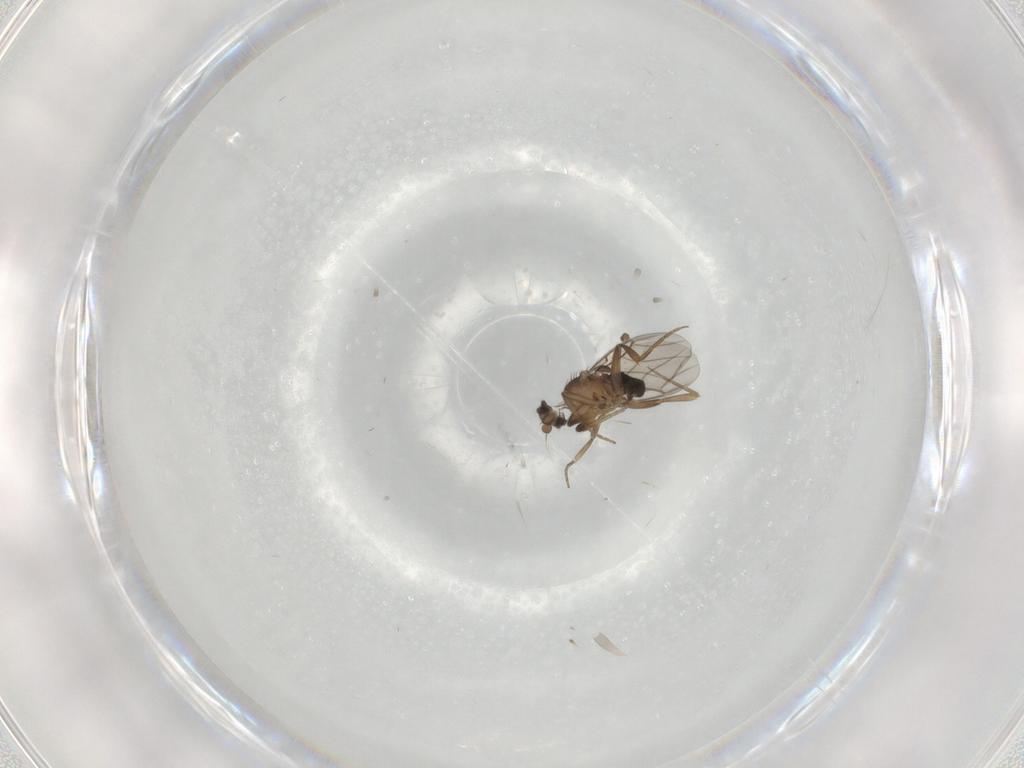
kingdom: Animalia
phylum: Arthropoda
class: Insecta
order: Diptera
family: Phoridae
